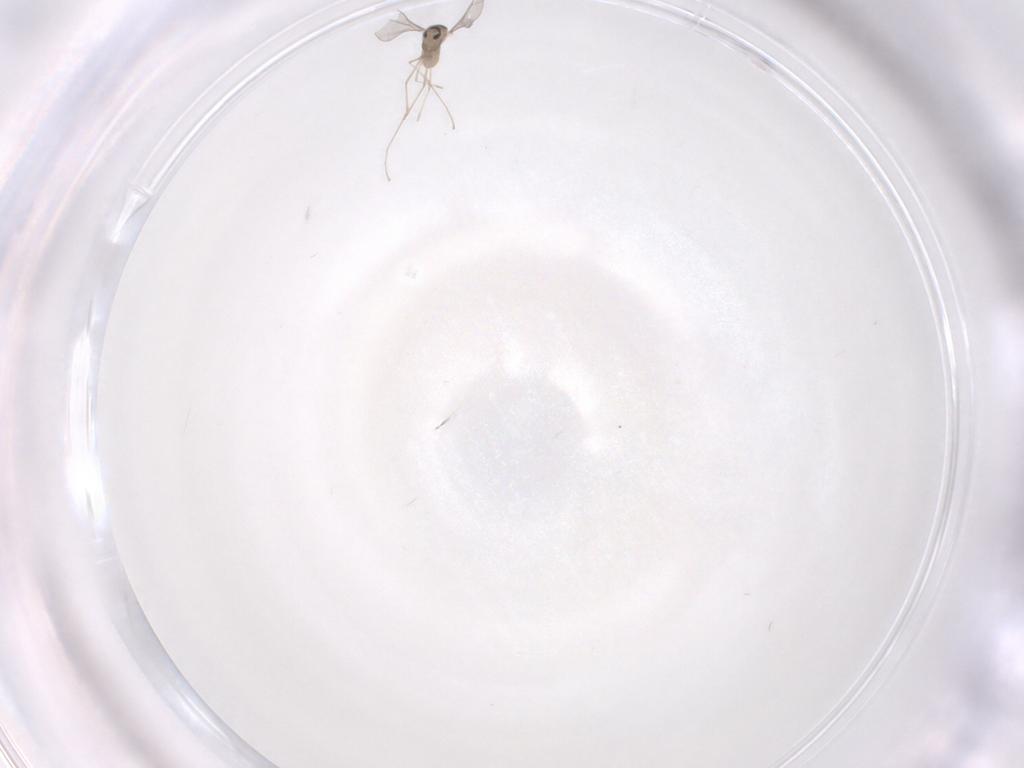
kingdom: Animalia
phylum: Arthropoda
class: Insecta
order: Diptera
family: Cecidomyiidae
